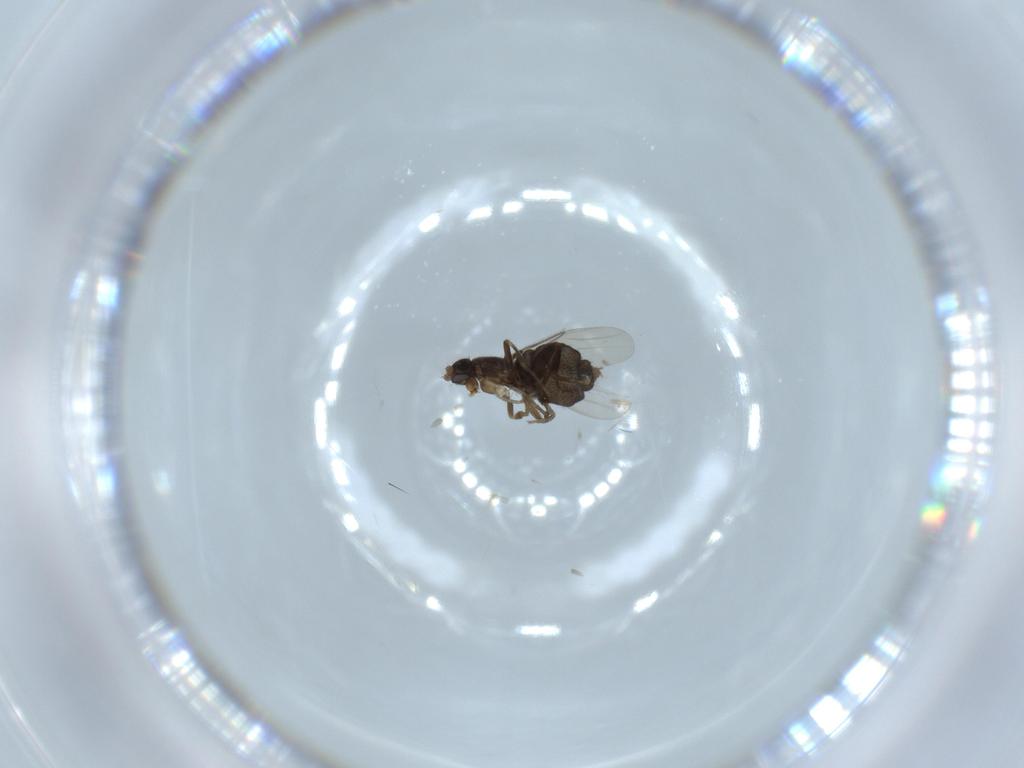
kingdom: Animalia
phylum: Arthropoda
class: Insecta
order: Diptera
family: Phoridae
